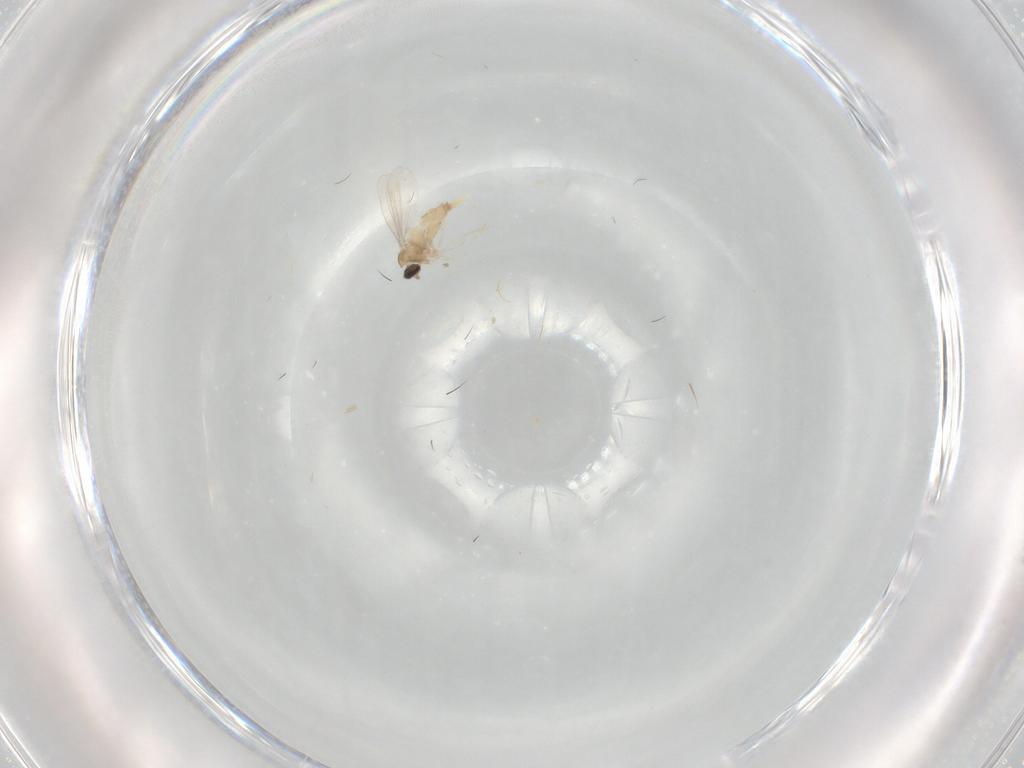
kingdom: Animalia
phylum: Arthropoda
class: Insecta
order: Diptera
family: Cecidomyiidae
